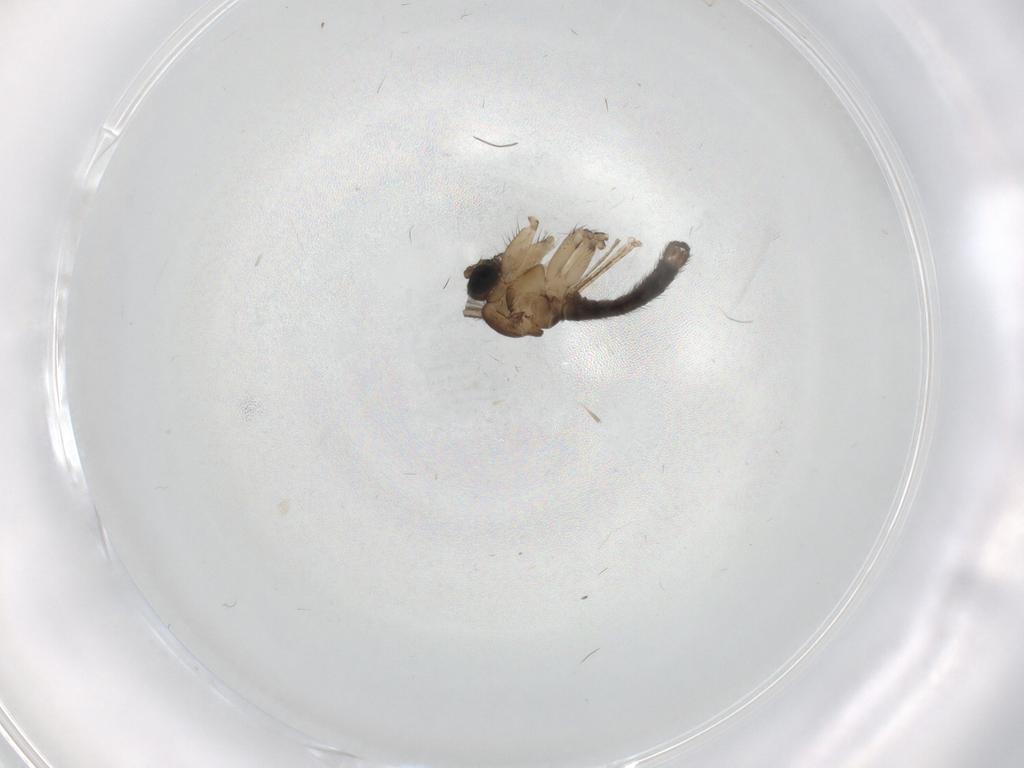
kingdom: Animalia
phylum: Arthropoda
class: Insecta
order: Diptera
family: Sciaridae
